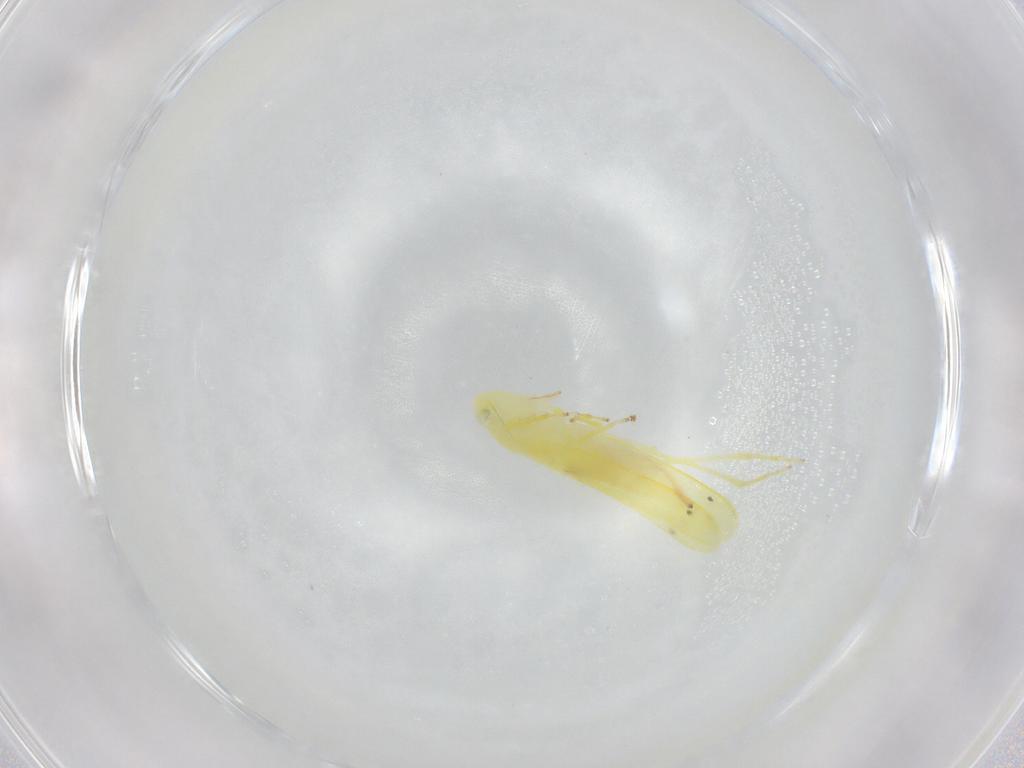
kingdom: Animalia
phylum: Arthropoda
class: Insecta
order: Hemiptera
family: Cicadellidae
